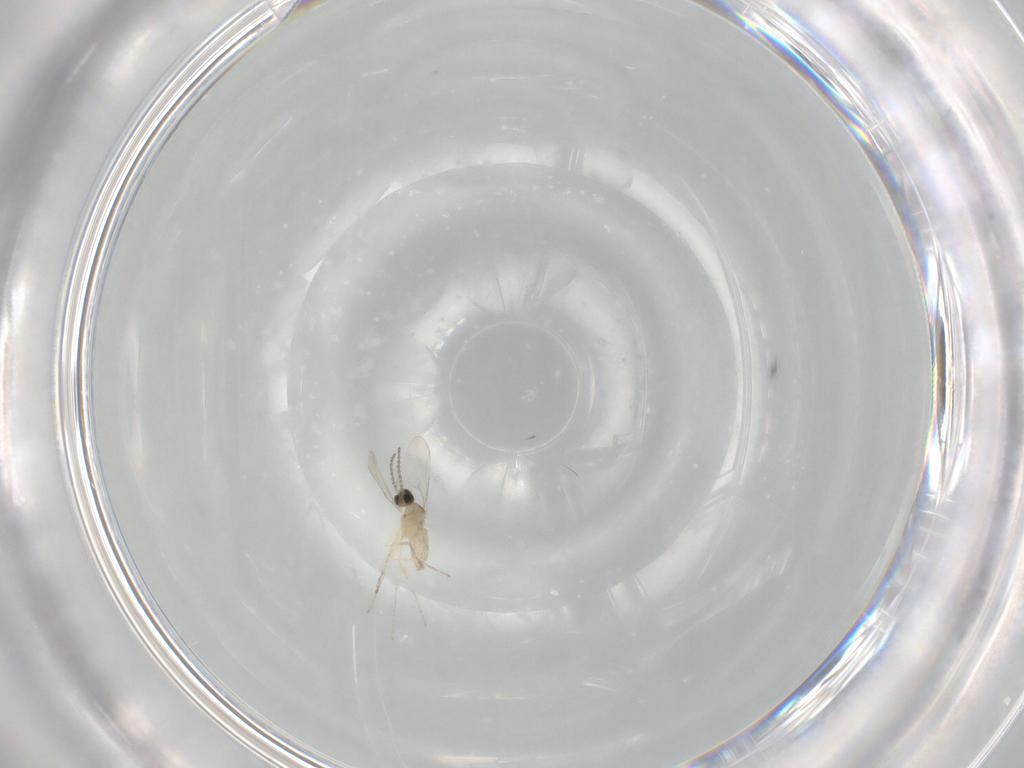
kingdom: Animalia
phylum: Arthropoda
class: Insecta
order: Diptera
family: Cecidomyiidae
